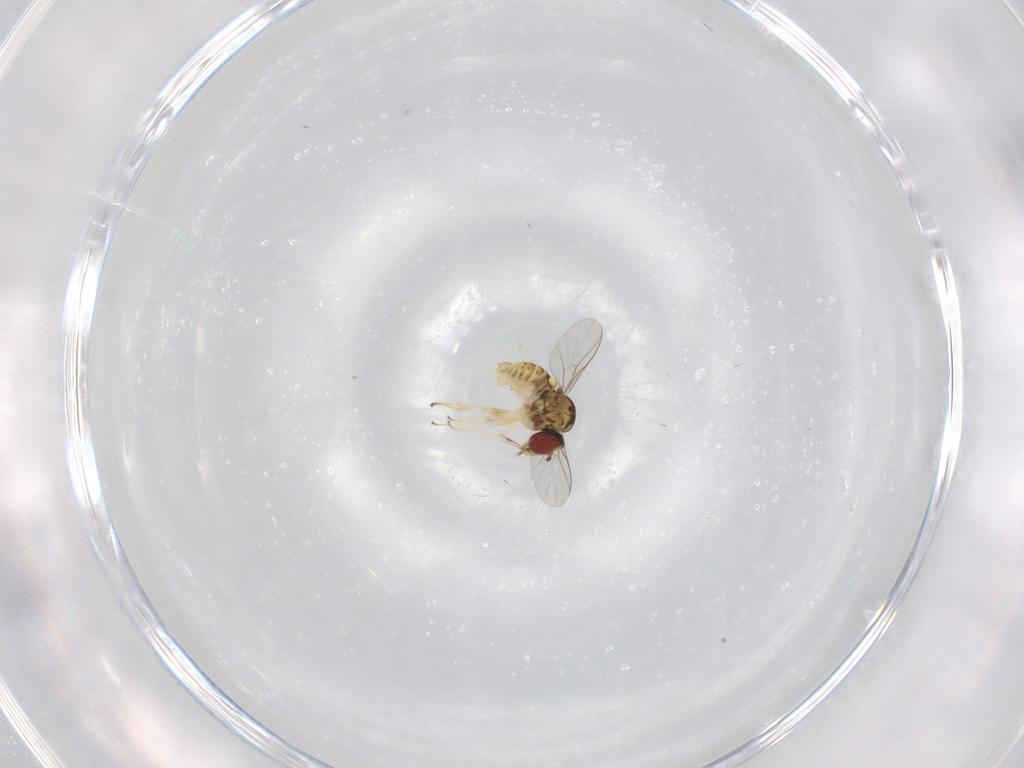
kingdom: Animalia
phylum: Arthropoda
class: Insecta
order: Diptera
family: Bombyliidae
